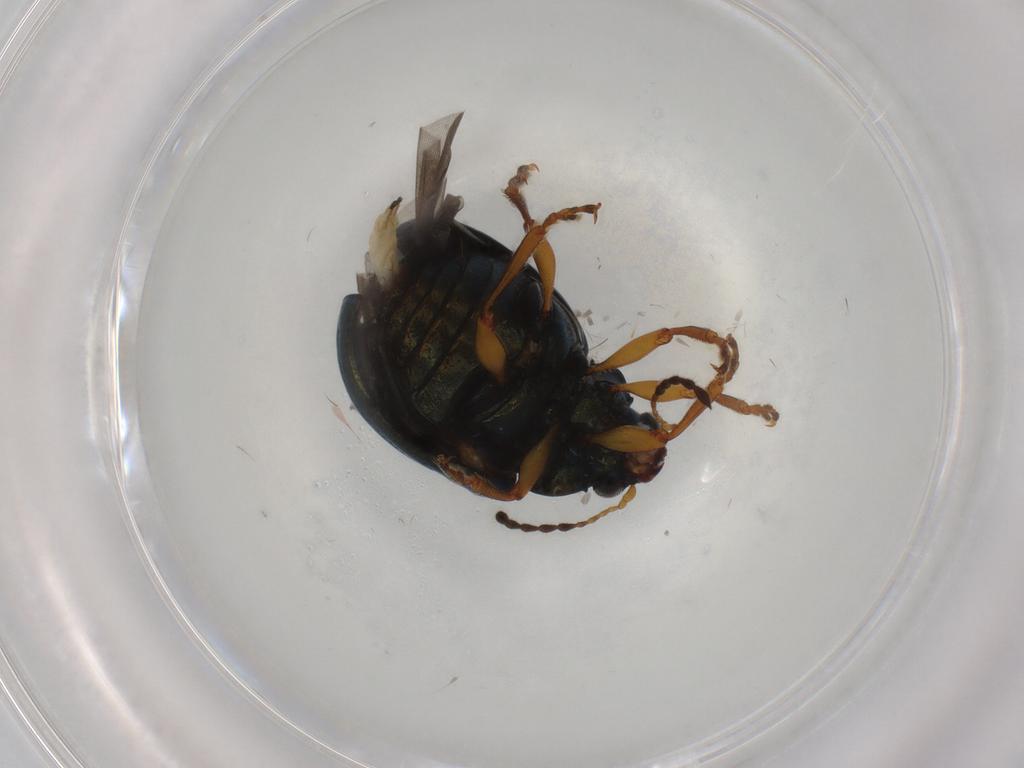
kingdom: Animalia
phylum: Arthropoda
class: Insecta
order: Coleoptera
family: Chrysomelidae
